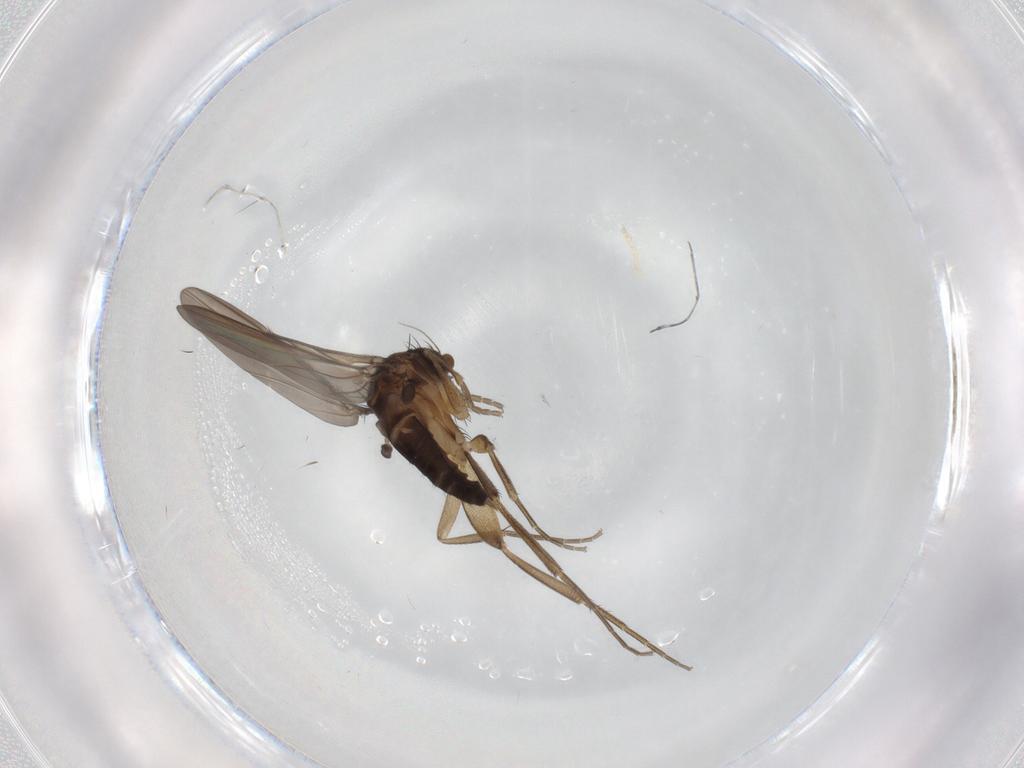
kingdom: Animalia
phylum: Arthropoda
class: Insecta
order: Diptera
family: Phoridae
